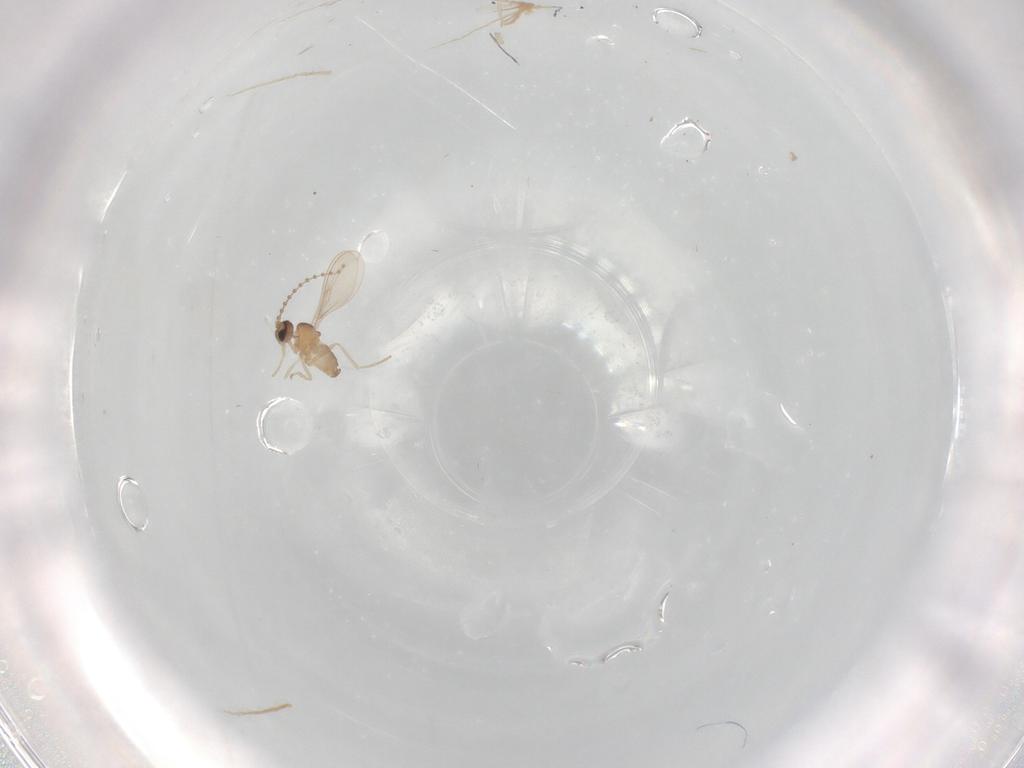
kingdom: Animalia
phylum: Arthropoda
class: Insecta
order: Diptera
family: Cecidomyiidae
